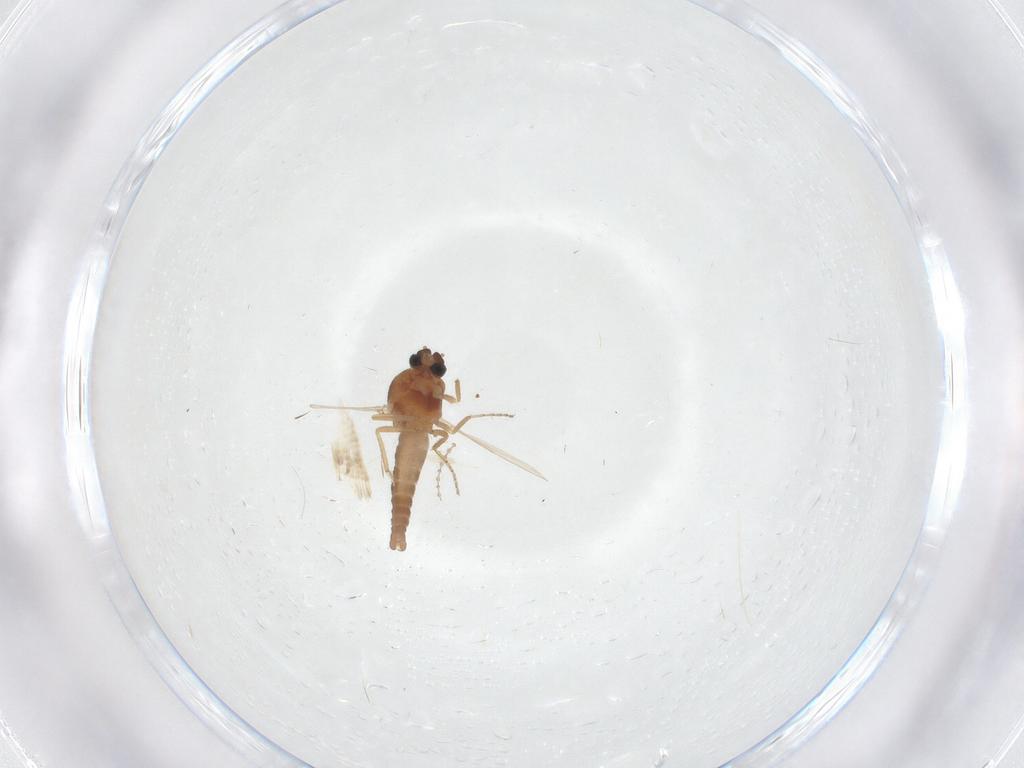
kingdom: Animalia
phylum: Arthropoda
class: Insecta
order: Diptera
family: Ceratopogonidae
